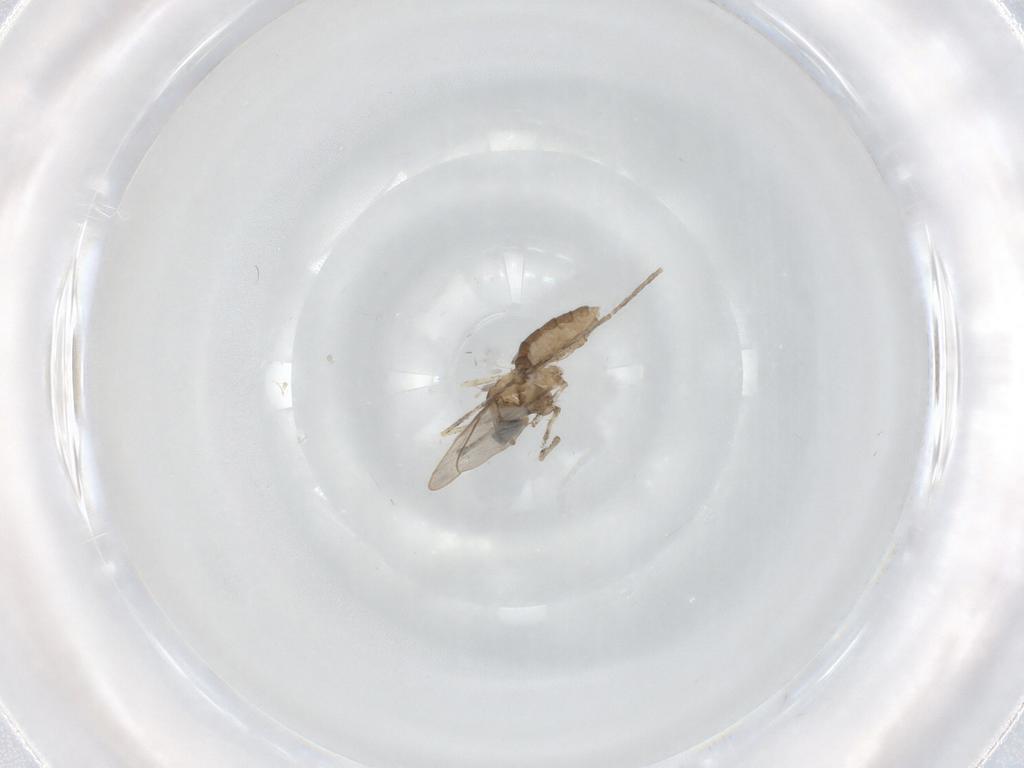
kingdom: Animalia
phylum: Arthropoda
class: Insecta
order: Diptera
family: Cecidomyiidae
